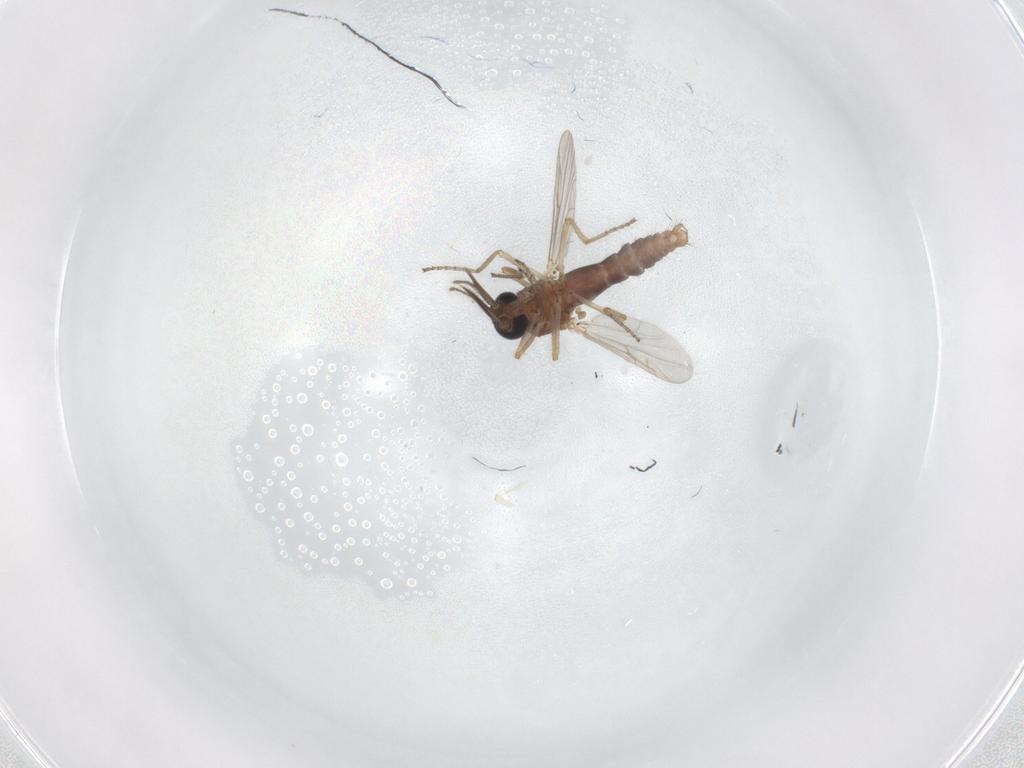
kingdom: Animalia
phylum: Arthropoda
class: Insecta
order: Diptera
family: Ceratopogonidae
